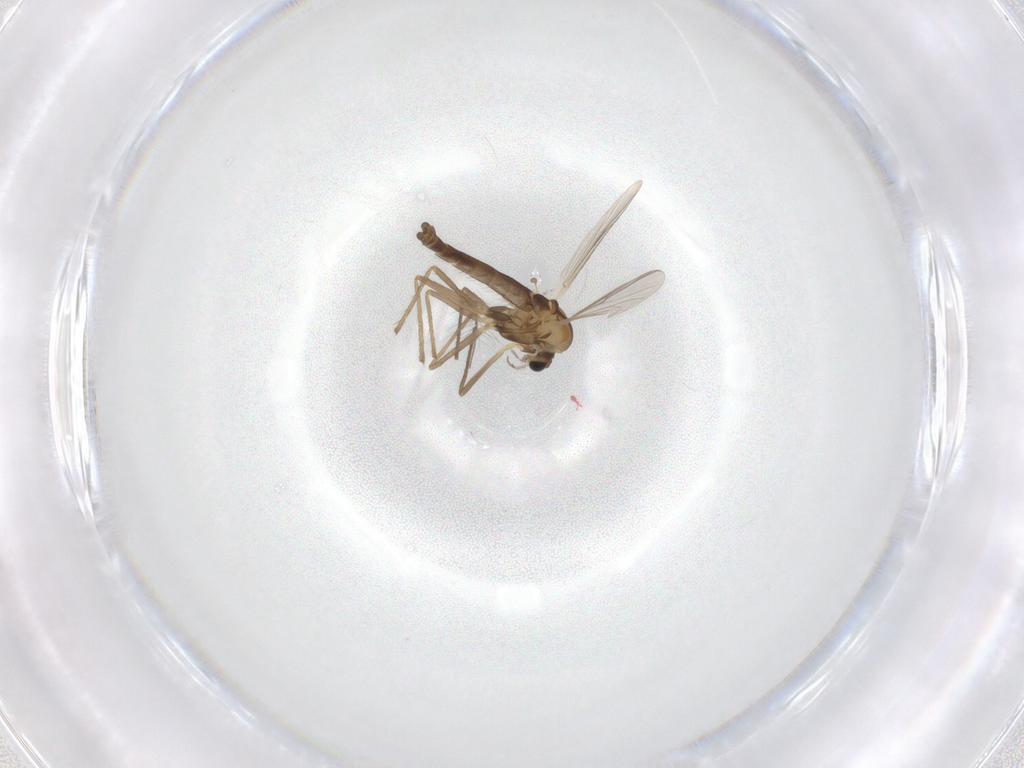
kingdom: Animalia
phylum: Arthropoda
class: Insecta
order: Diptera
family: Chironomidae
